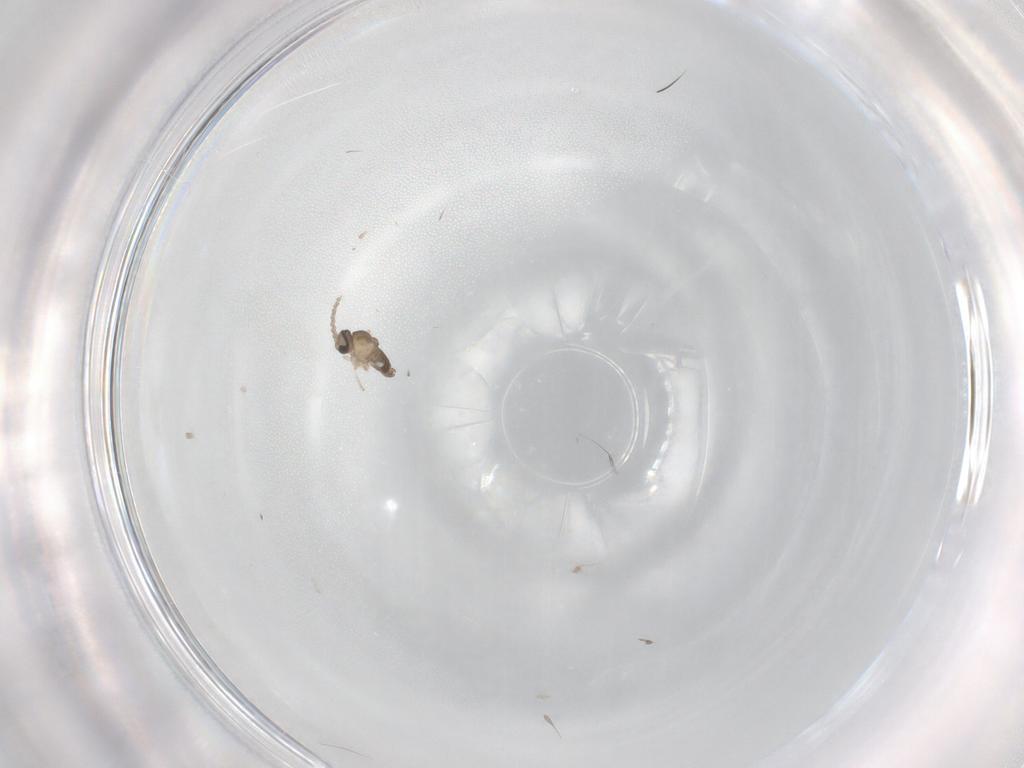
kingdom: Animalia
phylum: Arthropoda
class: Insecta
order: Diptera
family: Cecidomyiidae
